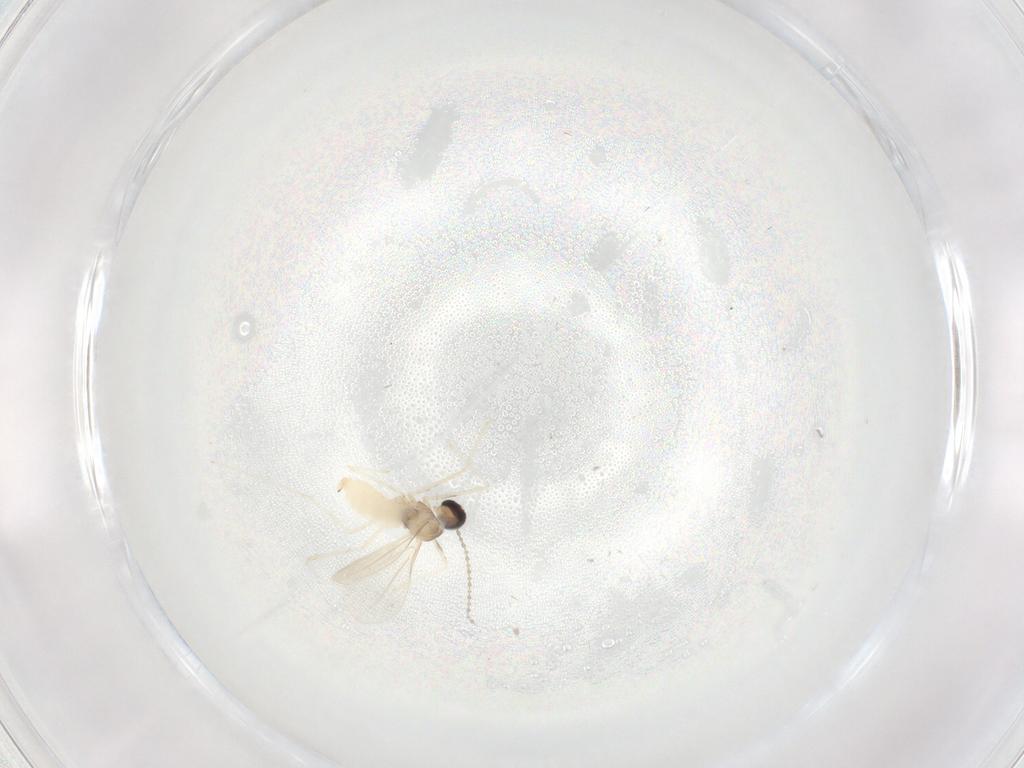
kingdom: Animalia
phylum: Arthropoda
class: Insecta
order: Diptera
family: Cecidomyiidae
